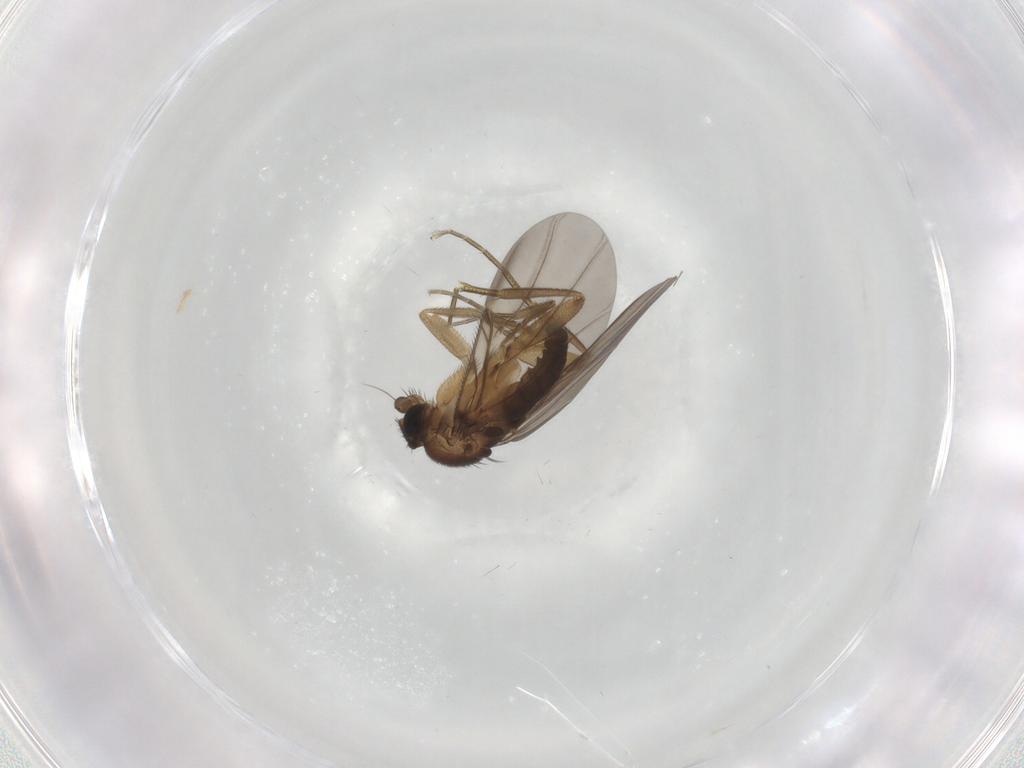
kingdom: Animalia
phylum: Arthropoda
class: Insecta
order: Diptera
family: Phoridae
